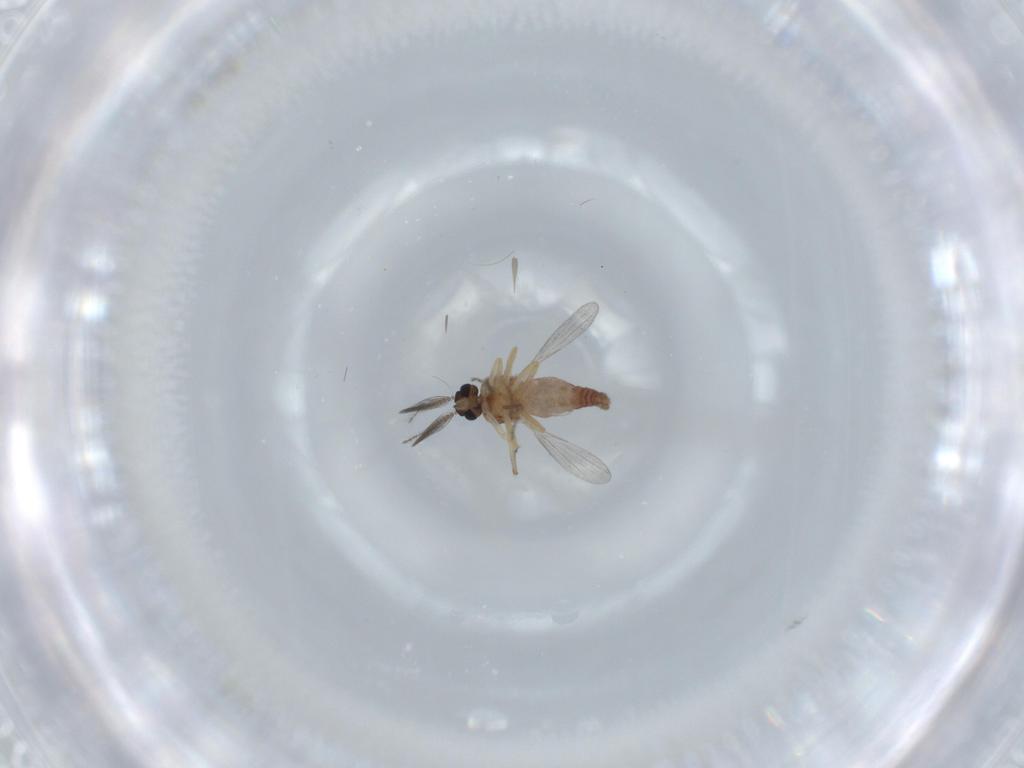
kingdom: Animalia
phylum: Arthropoda
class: Insecta
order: Diptera
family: Ceratopogonidae
